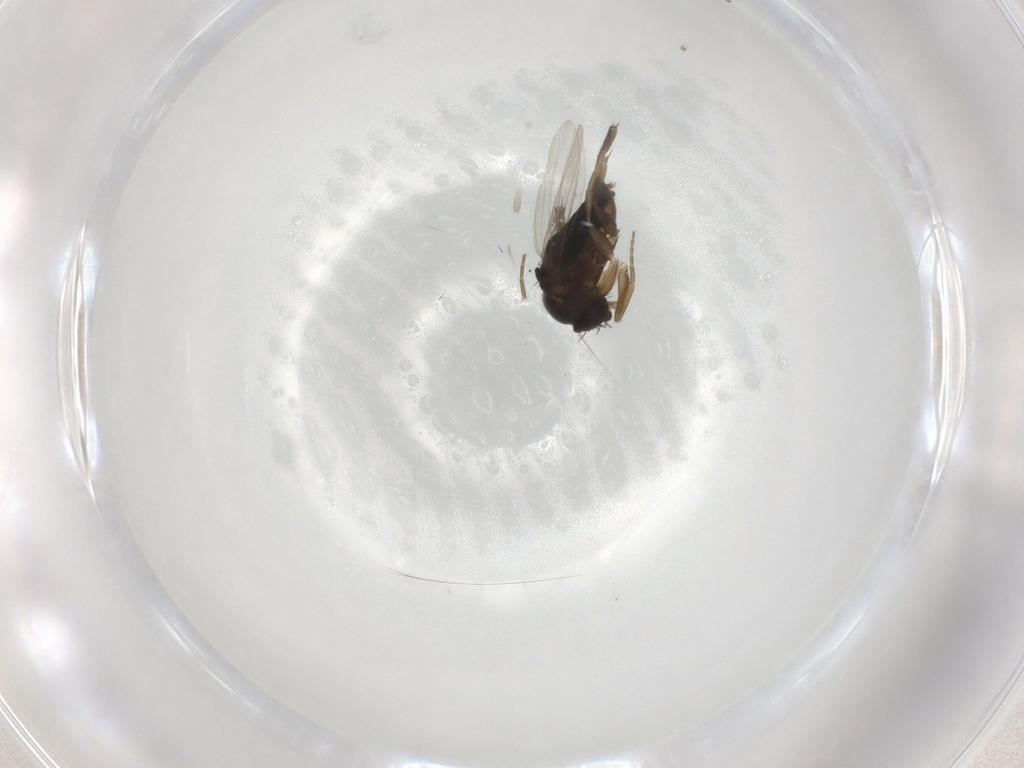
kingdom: Animalia
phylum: Arthropoda
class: Insecta
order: Diptera
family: Phoridae
